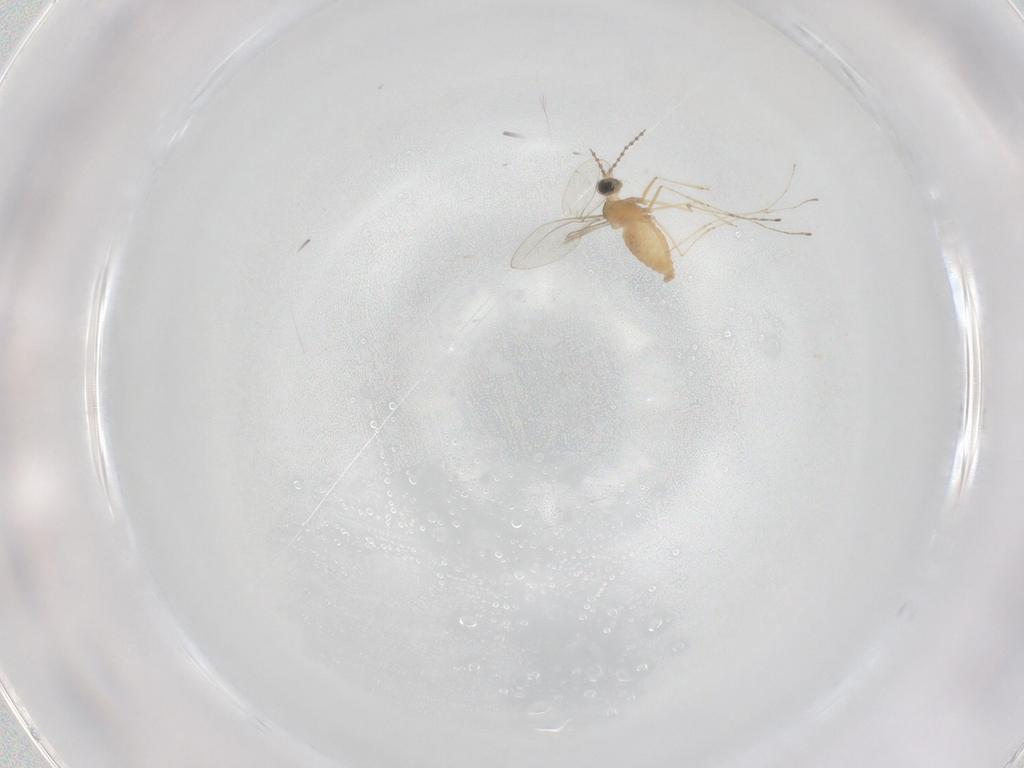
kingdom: Animalia
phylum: Arthropoda
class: Insecta
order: Diptera
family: Cecidomyiidae
